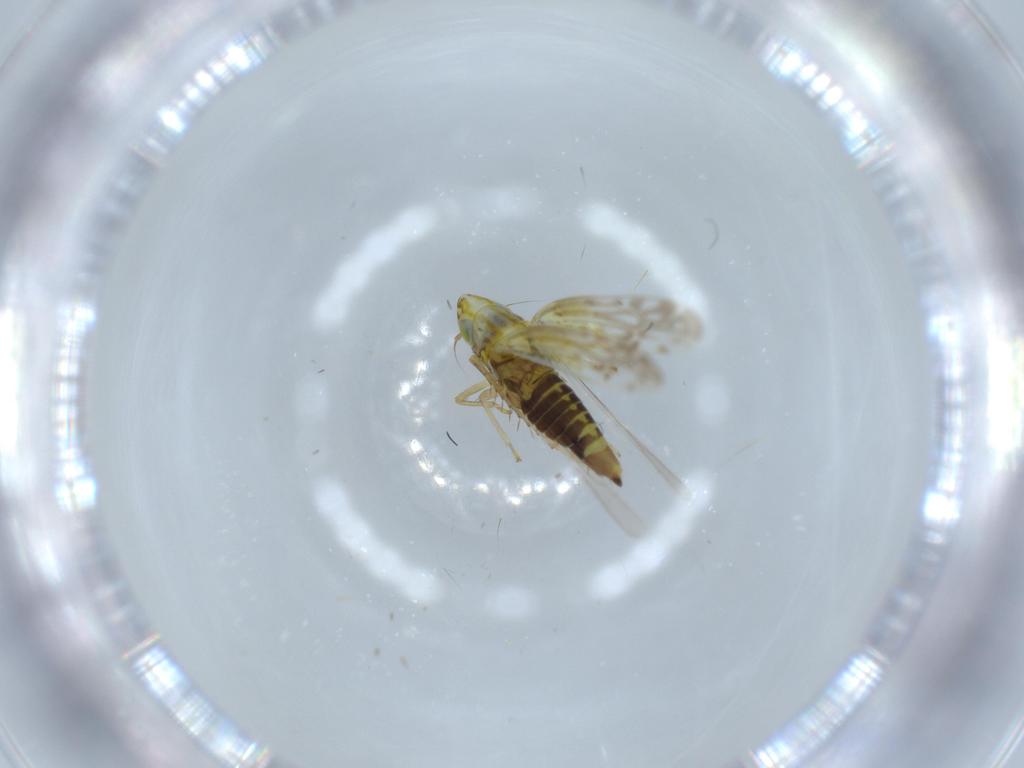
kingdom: Animalia
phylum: Arthropoda
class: Insecta
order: Hemiptera
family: Cicadellidae
